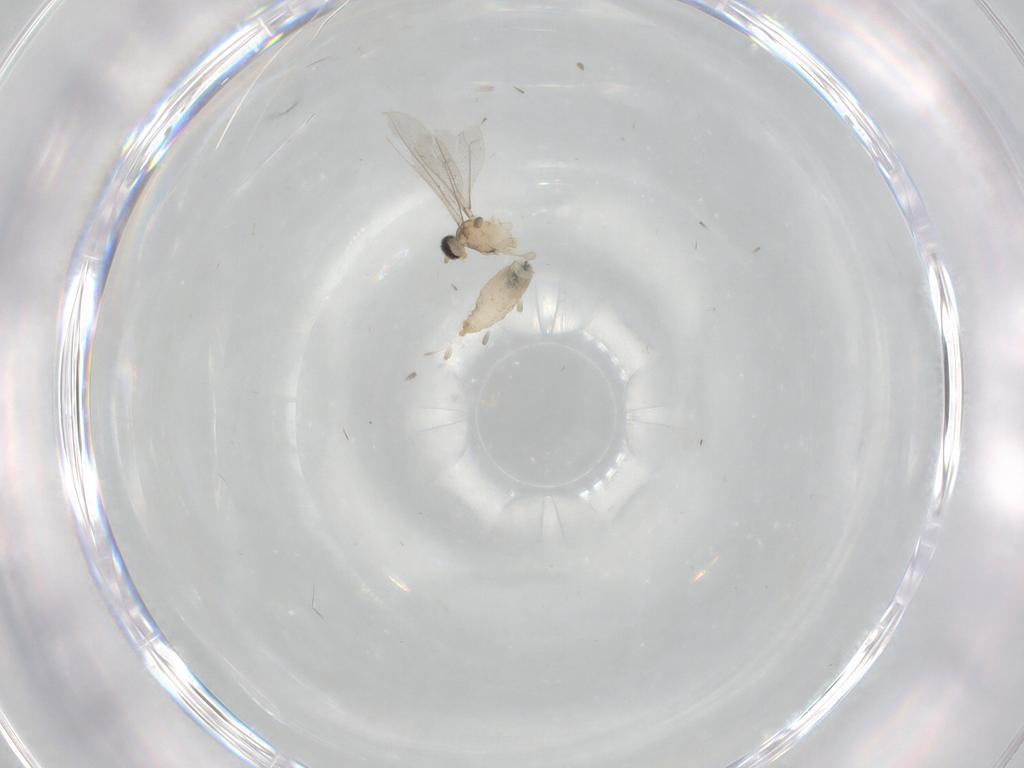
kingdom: Animalia
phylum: Arthropoda
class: Insecta
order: Diptera
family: Cecidomyiidae
